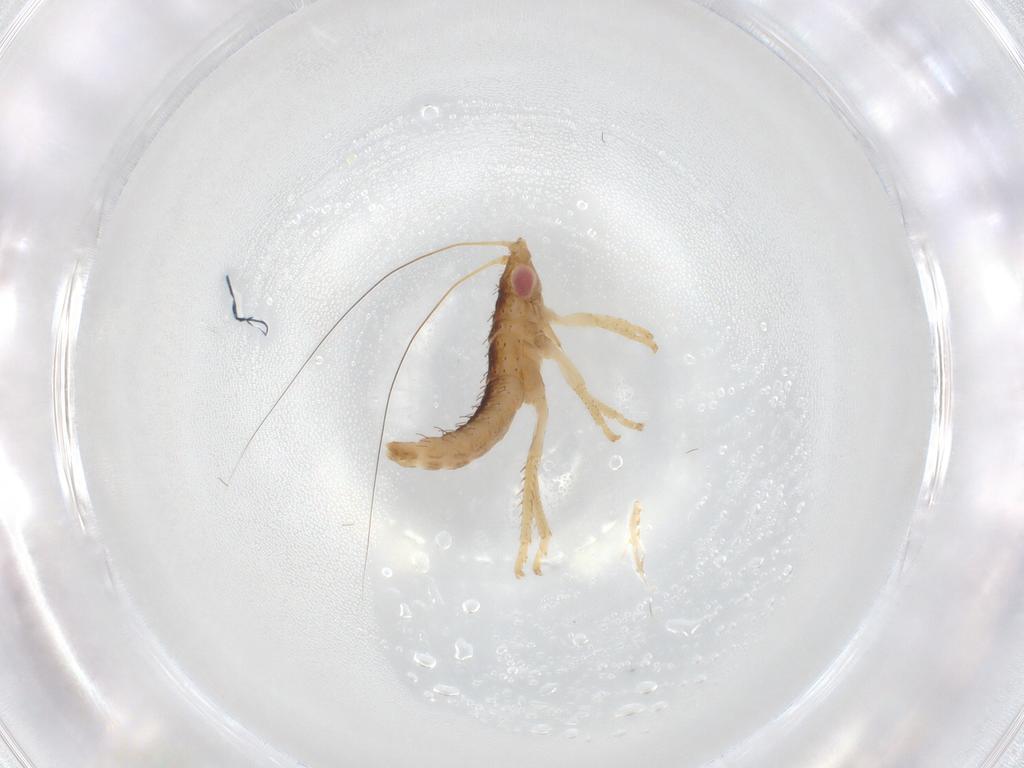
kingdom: Animalia
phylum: Arthropoda
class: Insecta
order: Hemiptera
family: Cicadellidae
